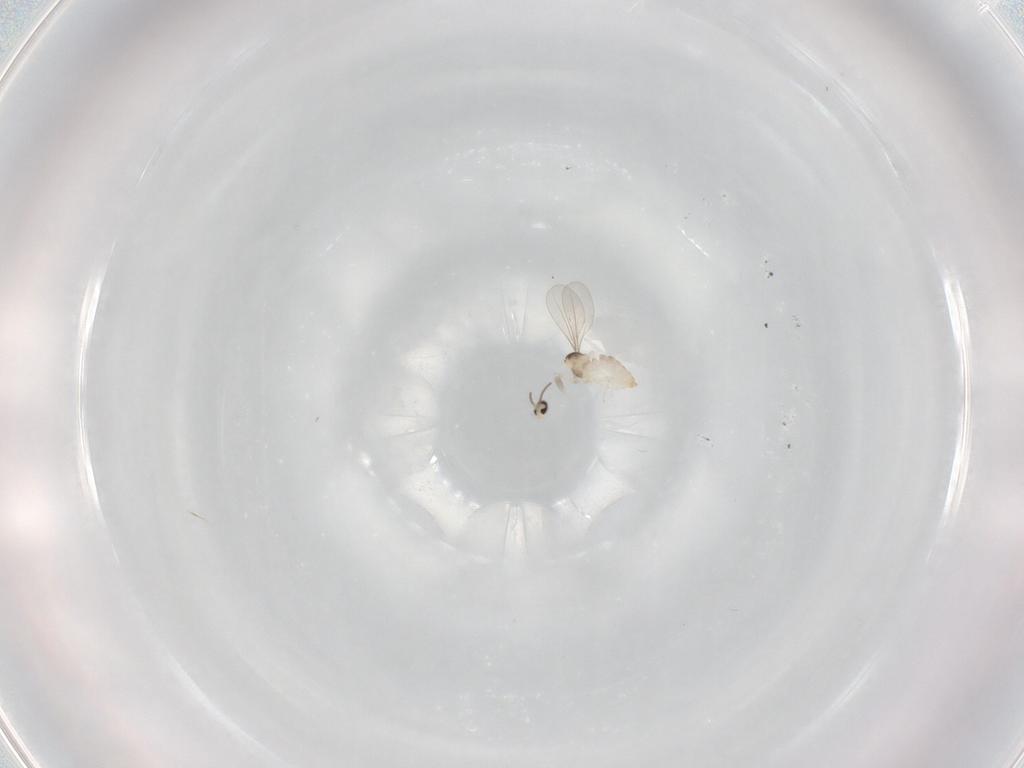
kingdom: Animalia
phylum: Arthropoda
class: Insecta
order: Diptera
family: Cecidomyiidae
